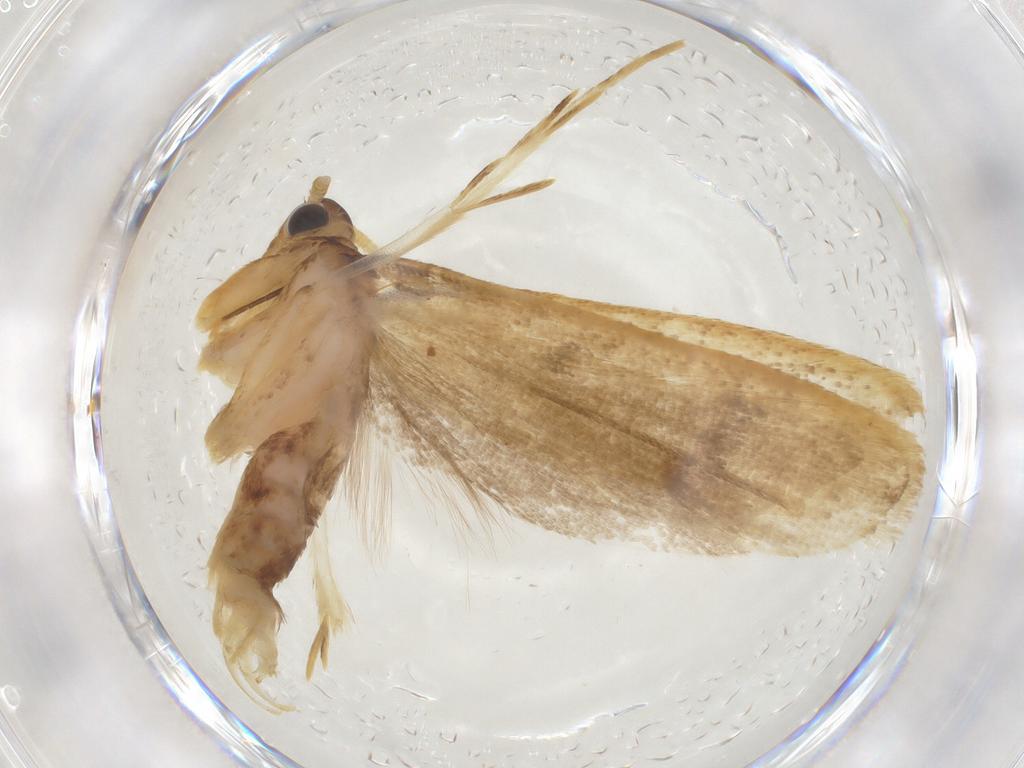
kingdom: Animalia
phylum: Arthropoda
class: Insecta
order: Lepidoptera
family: Lecithoceridae
